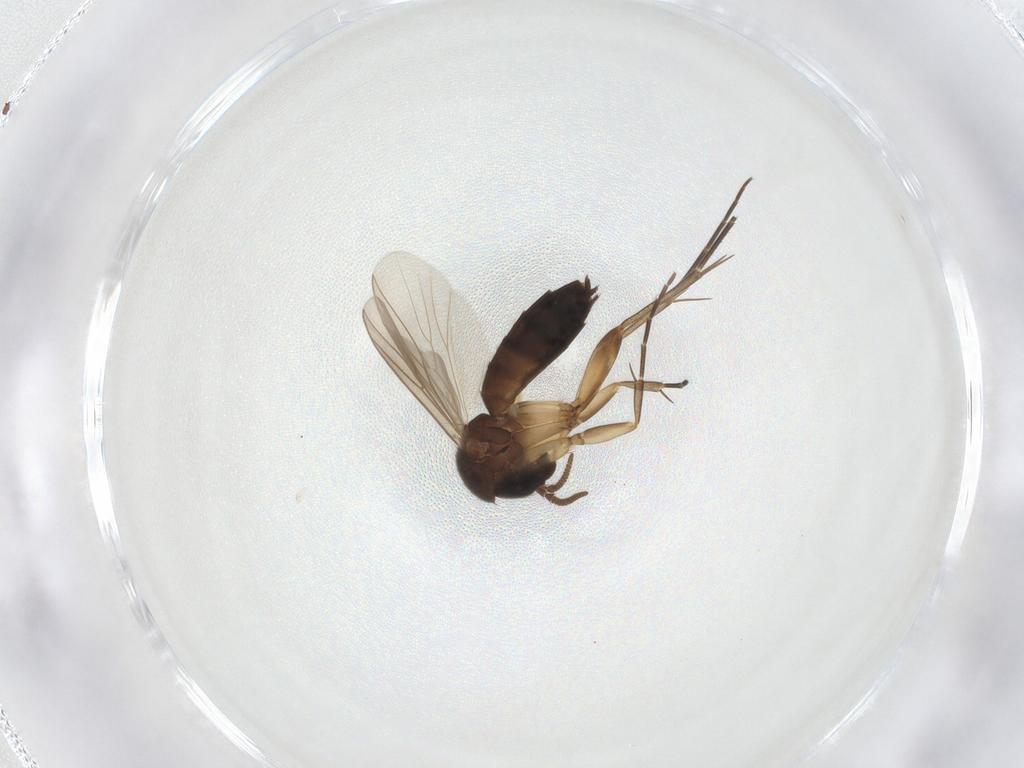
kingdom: Animalia
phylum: Arthropoda
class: Insecta
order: Diptera
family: Mycetophilidae
